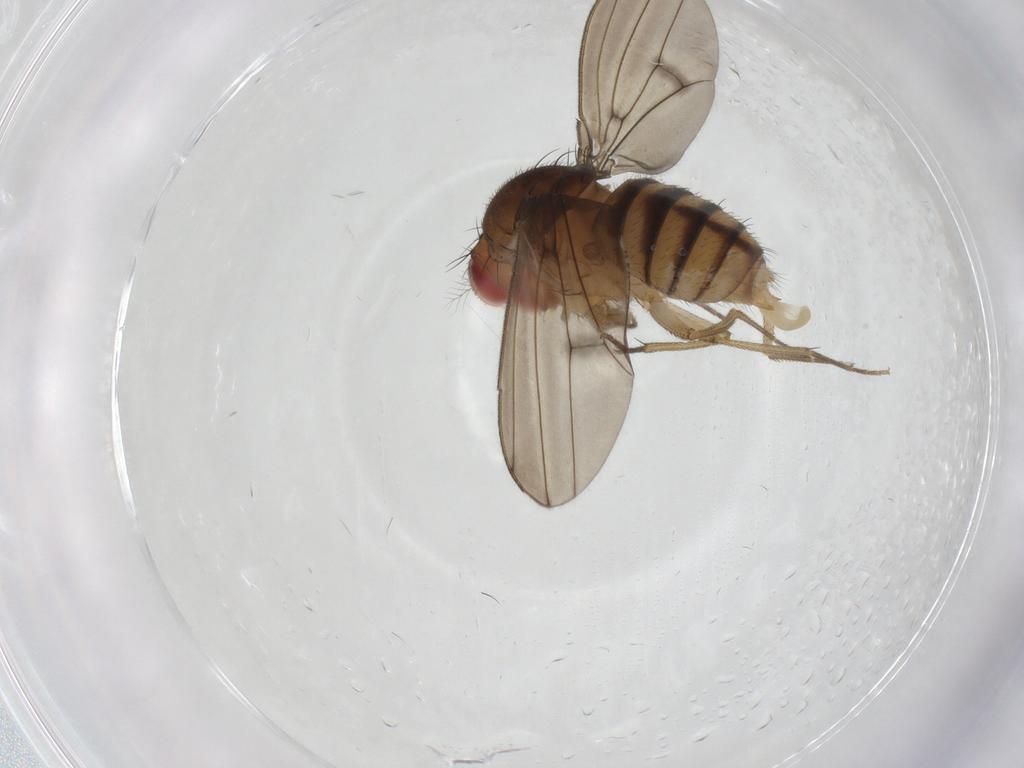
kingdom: Animalia
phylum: Arthropoda
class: Insecta
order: Diptera
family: Drosophilidae
